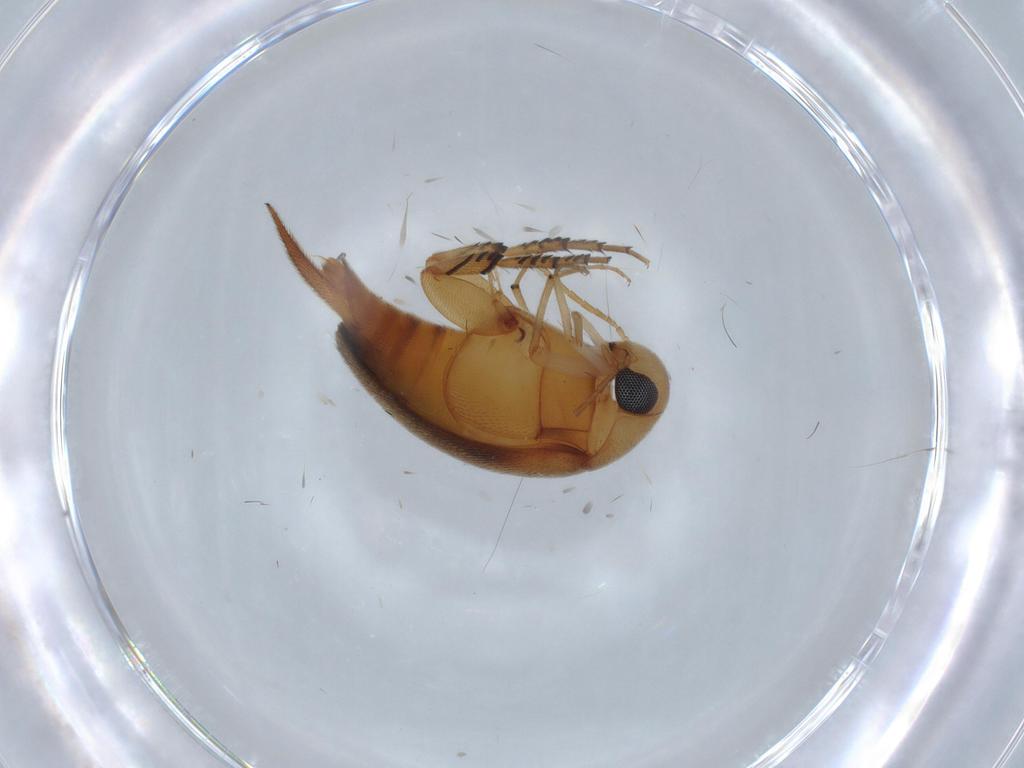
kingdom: Animalia
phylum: Arthropoda
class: Insecta
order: Coleoptera
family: Mordellidae
